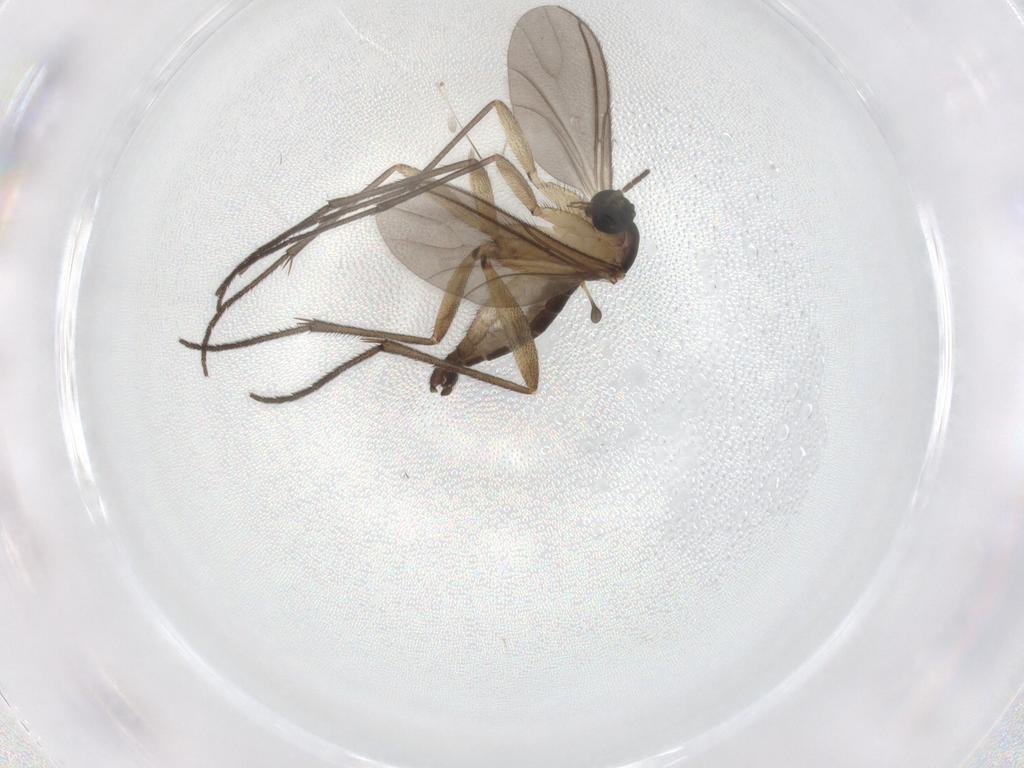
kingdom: Animalia
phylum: Arthropoda
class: Insecta
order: Diptera
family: Sciaridae
